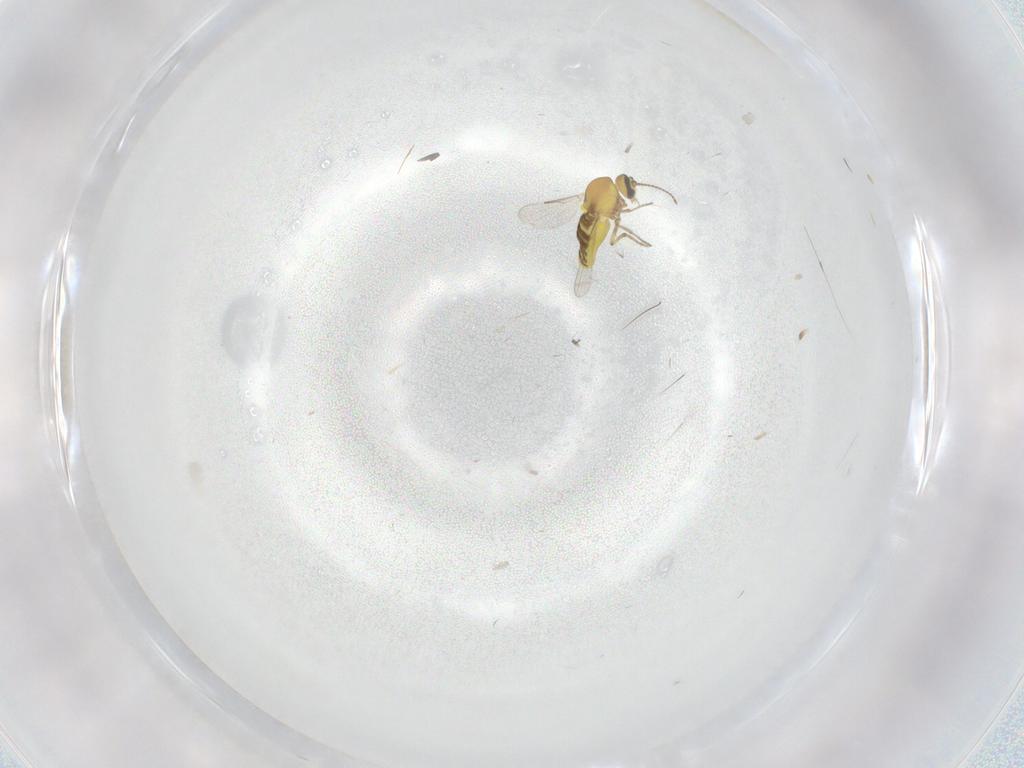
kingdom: Animalia
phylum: Arthropoda
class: Insecta
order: Diptera
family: Ceratopogonidae
